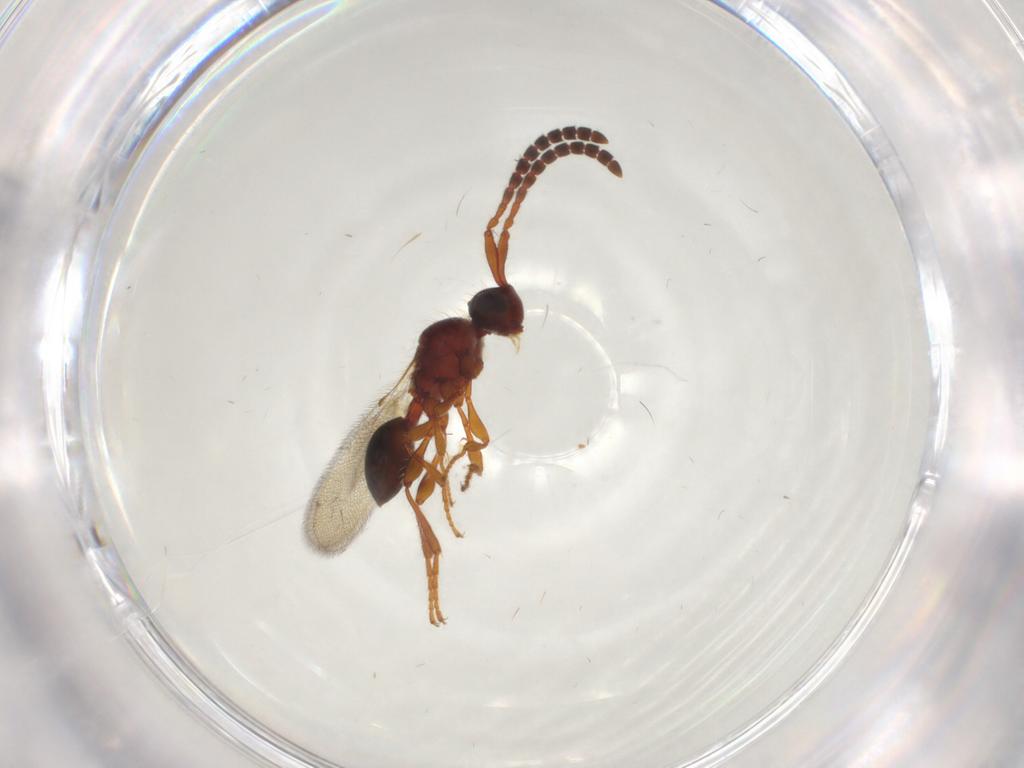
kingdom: Animalia
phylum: Arthropoda
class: Insecta
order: Hymenoptera
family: Diapriidae
